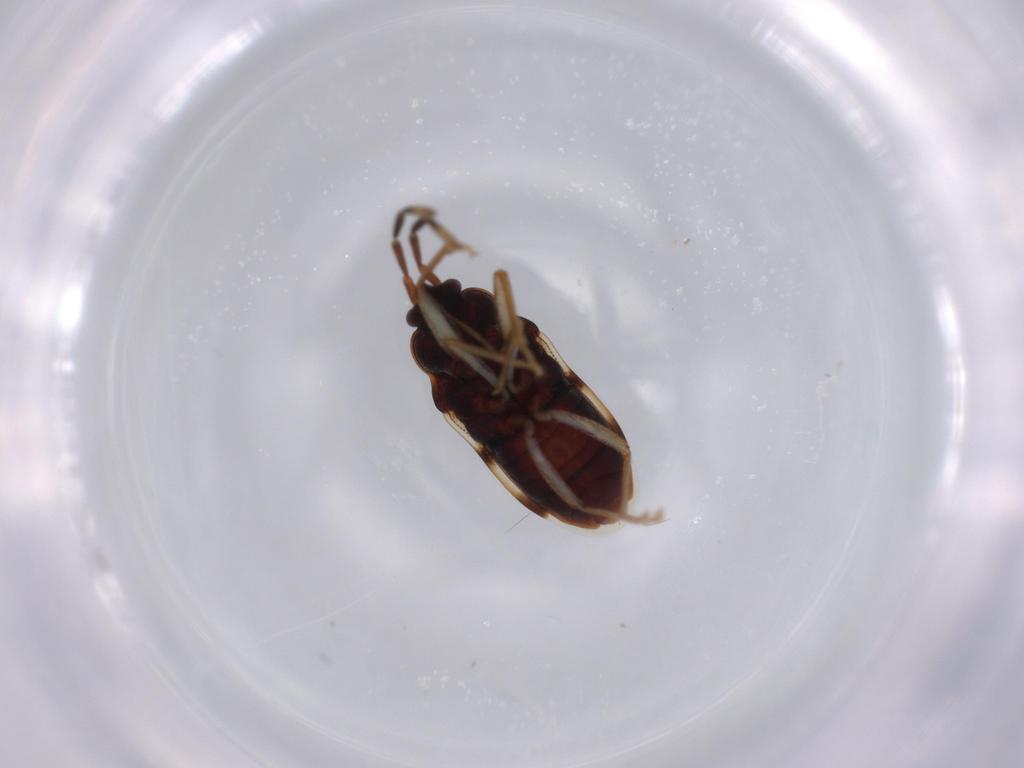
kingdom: Animalia
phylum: Arthropoda
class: Insecta
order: Hemiptera
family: Rhyparochromidae
